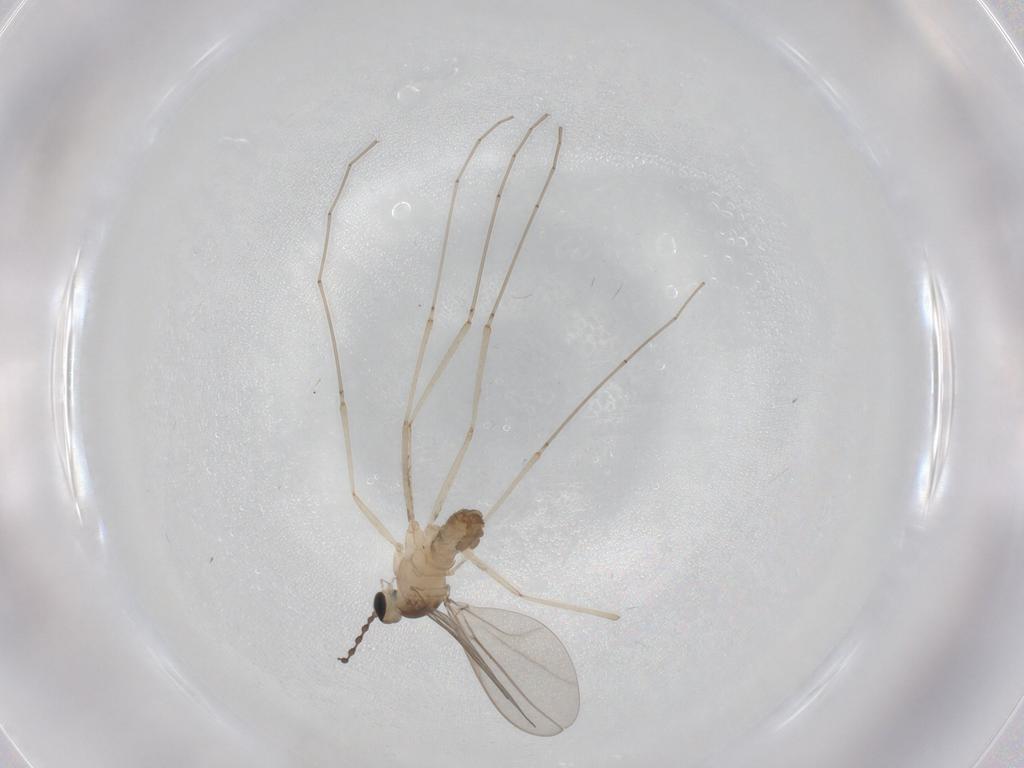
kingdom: Animalia
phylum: Arthropoda
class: Insecta
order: Diptera
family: Cecidomyiidae
